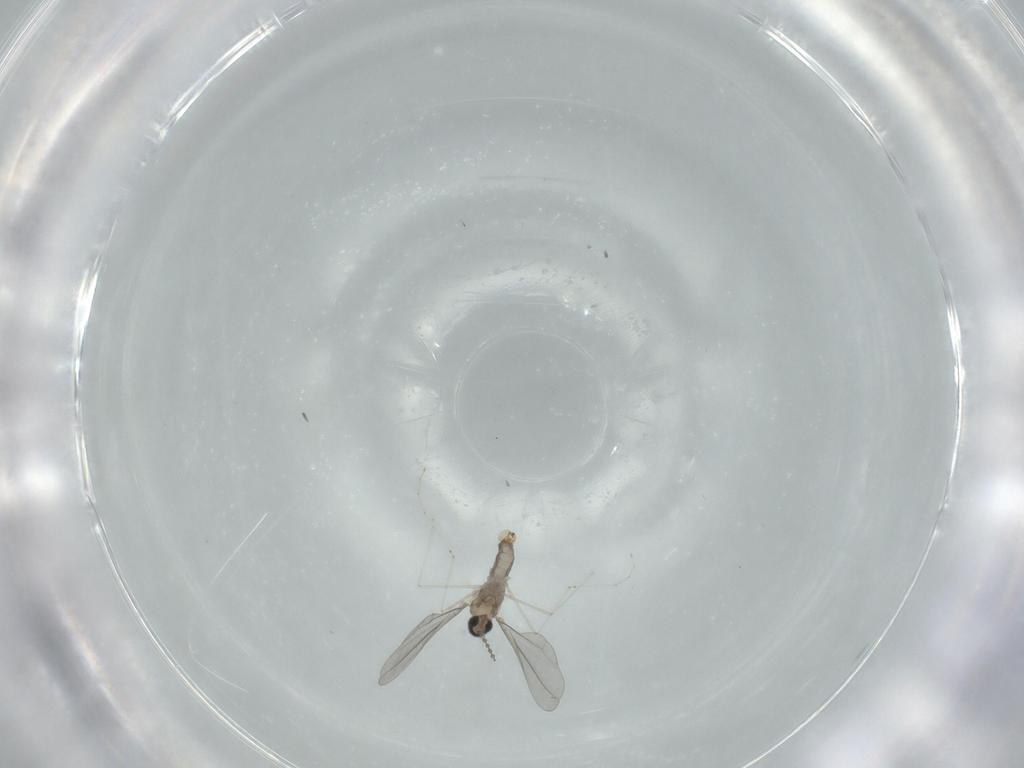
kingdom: Animalia
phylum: Arthropoda
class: Insecta
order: Diptera
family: Cecidomyiidae
